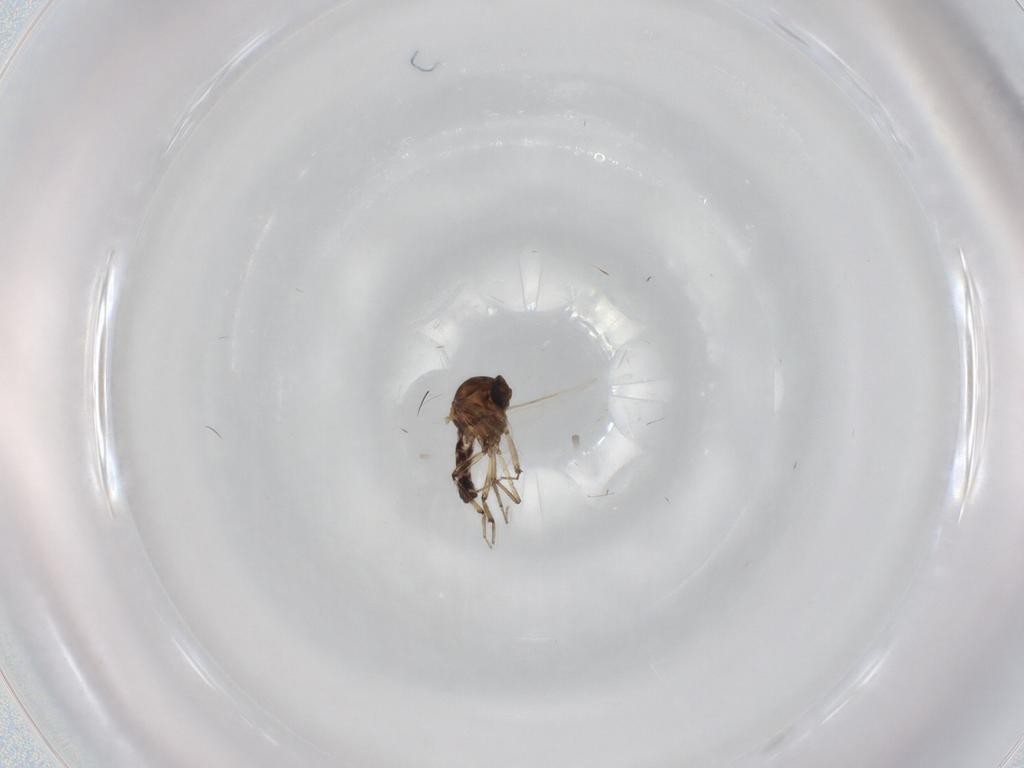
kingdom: Animalia
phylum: Arthropoda
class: Insecta
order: Diptera
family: Ceratopogonidae
